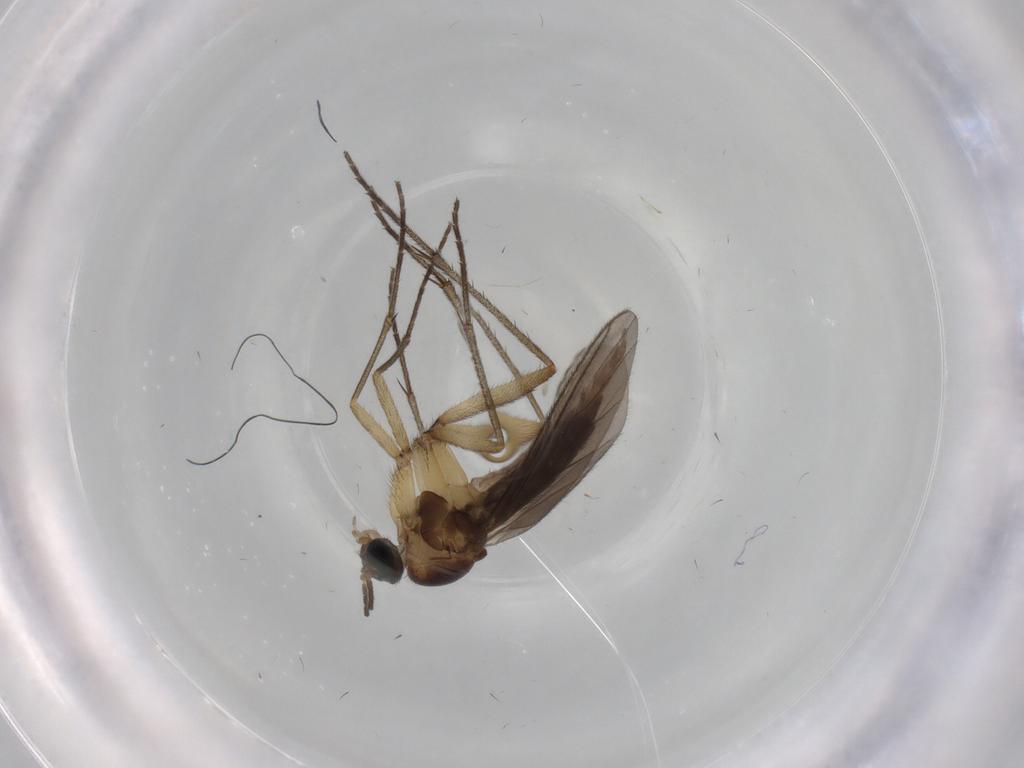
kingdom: Animalia
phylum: Arthropoda
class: Insecta
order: Diptera
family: Sciaridae
